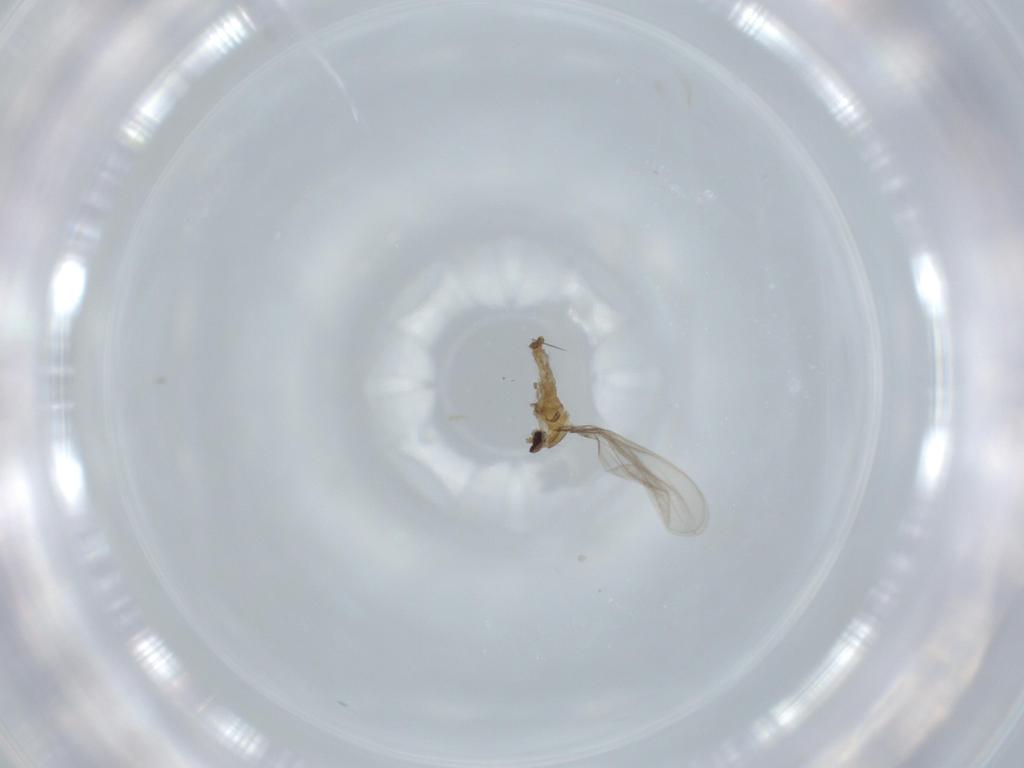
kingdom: Animalia
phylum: Arthropoda
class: Insecta
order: Diptera
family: Cecidomyiidae
